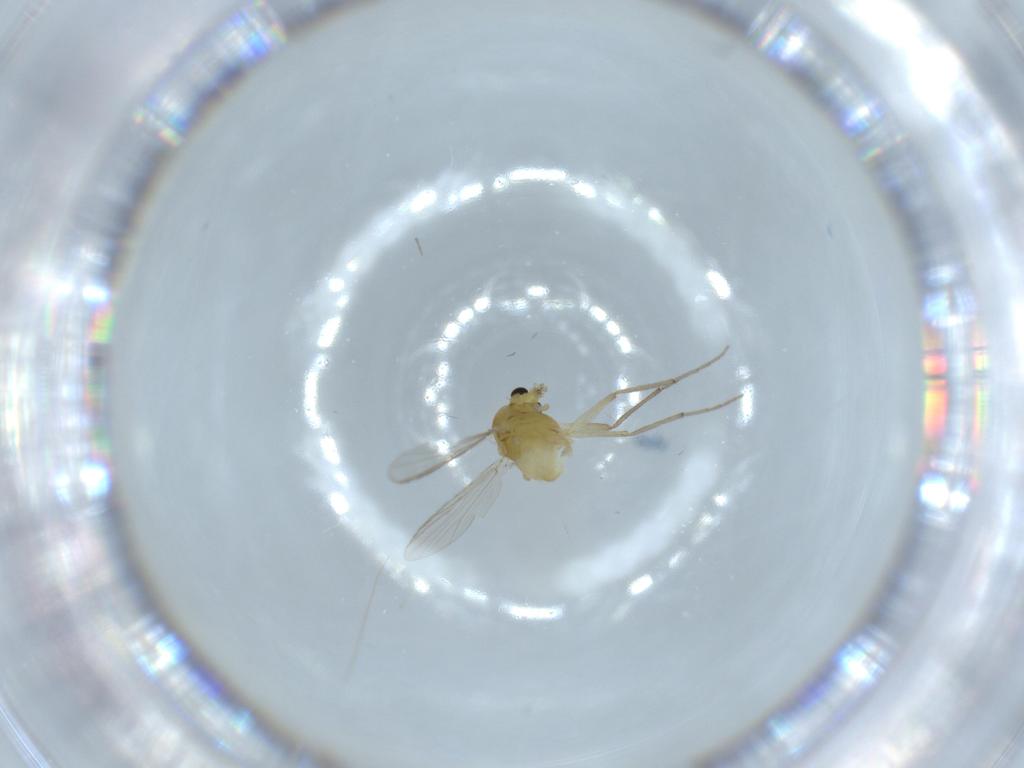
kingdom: Animalia
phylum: Arthropoda
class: Insecta
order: Diptera
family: Chironomidae
